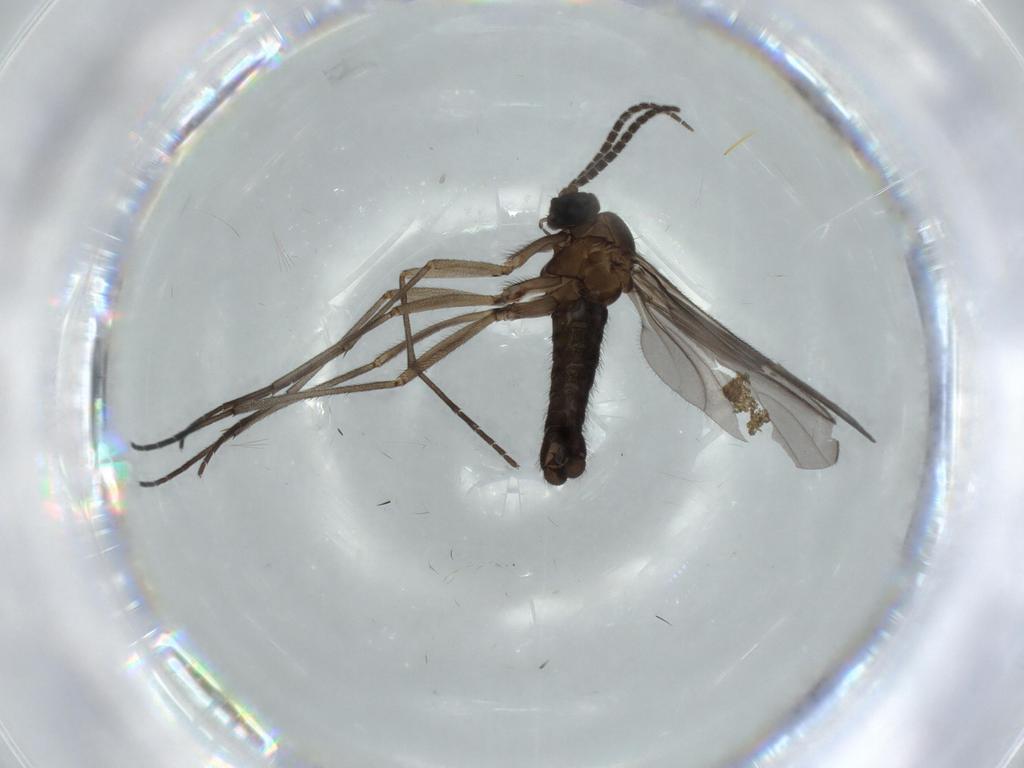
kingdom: Animalia
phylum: Arthropoda
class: Insecta
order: Diptera
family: Sciaridae
